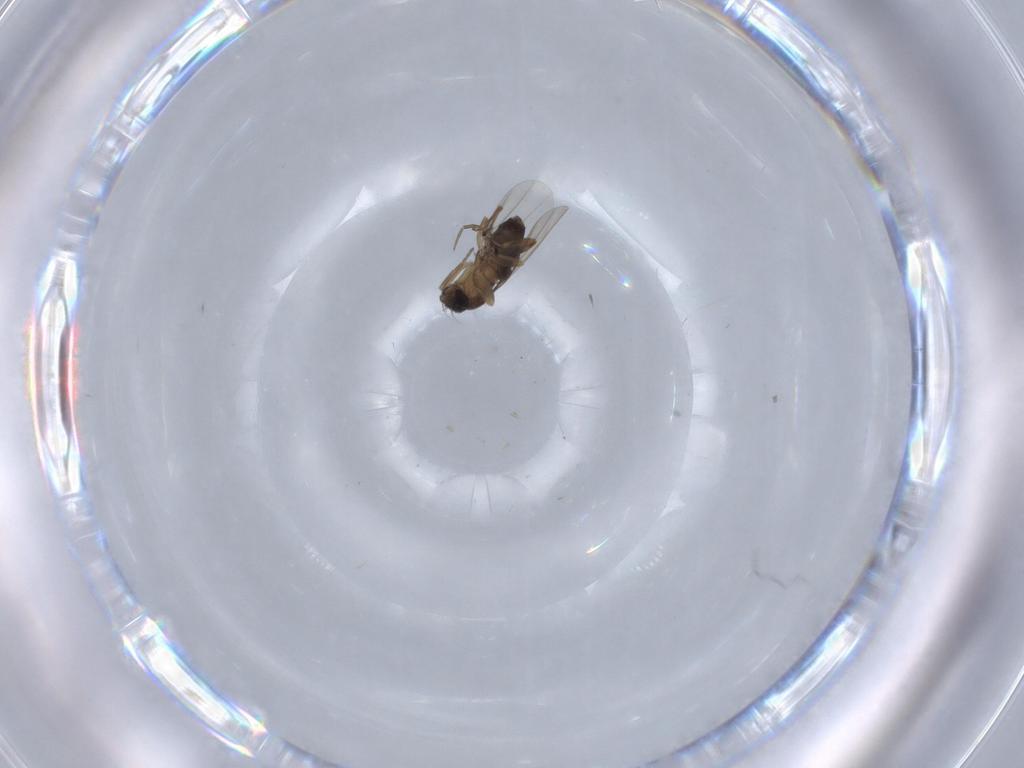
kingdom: Animalia
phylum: Arthropoda
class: Insecta
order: Diptera
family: Phoridae
